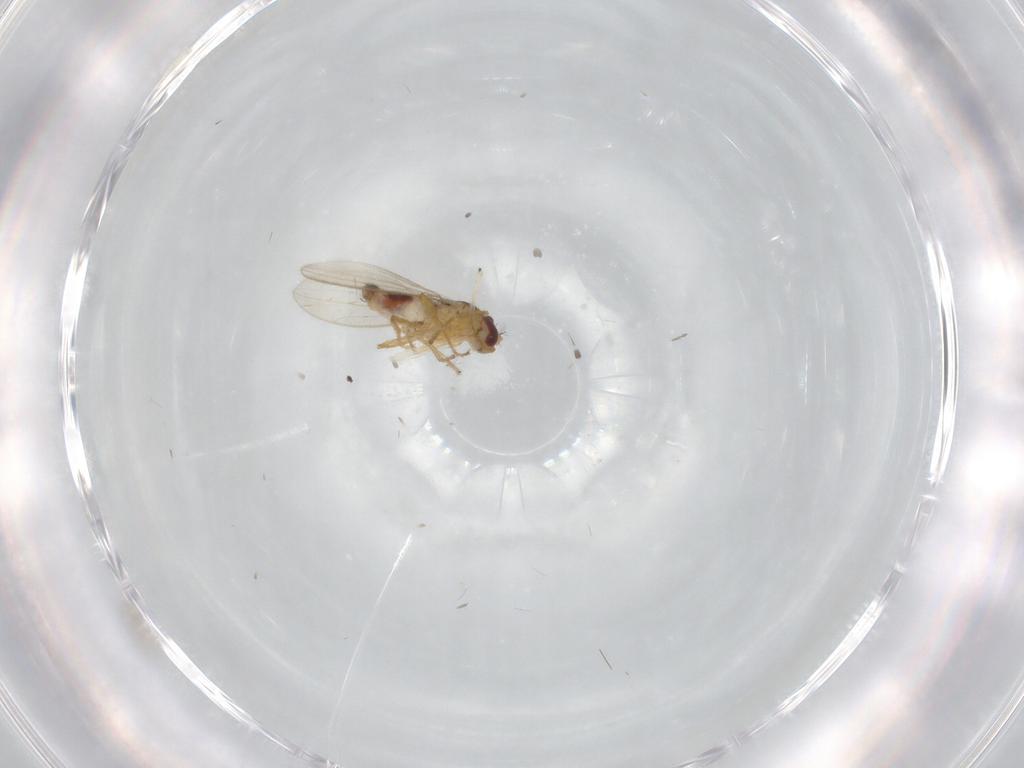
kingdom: Animalia
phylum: Arthropoda
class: Insecta
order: Diptera
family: Periscelididae
